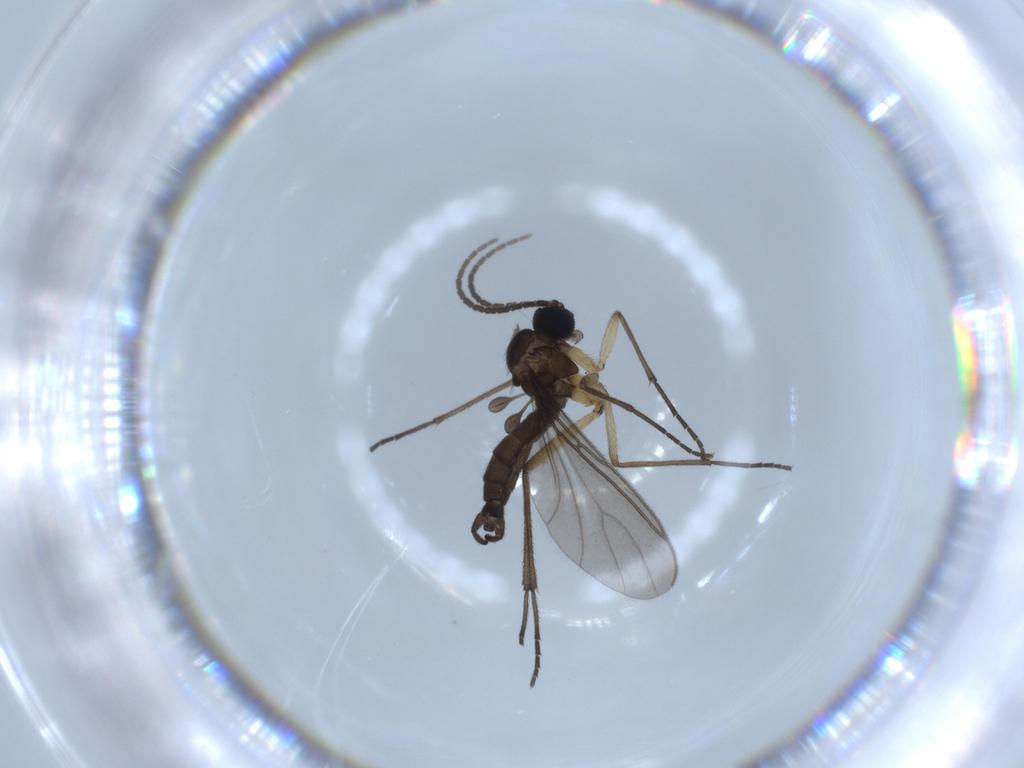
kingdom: Animalia
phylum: Arthropoda
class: Insecta
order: Diptera
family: Sciaridae
